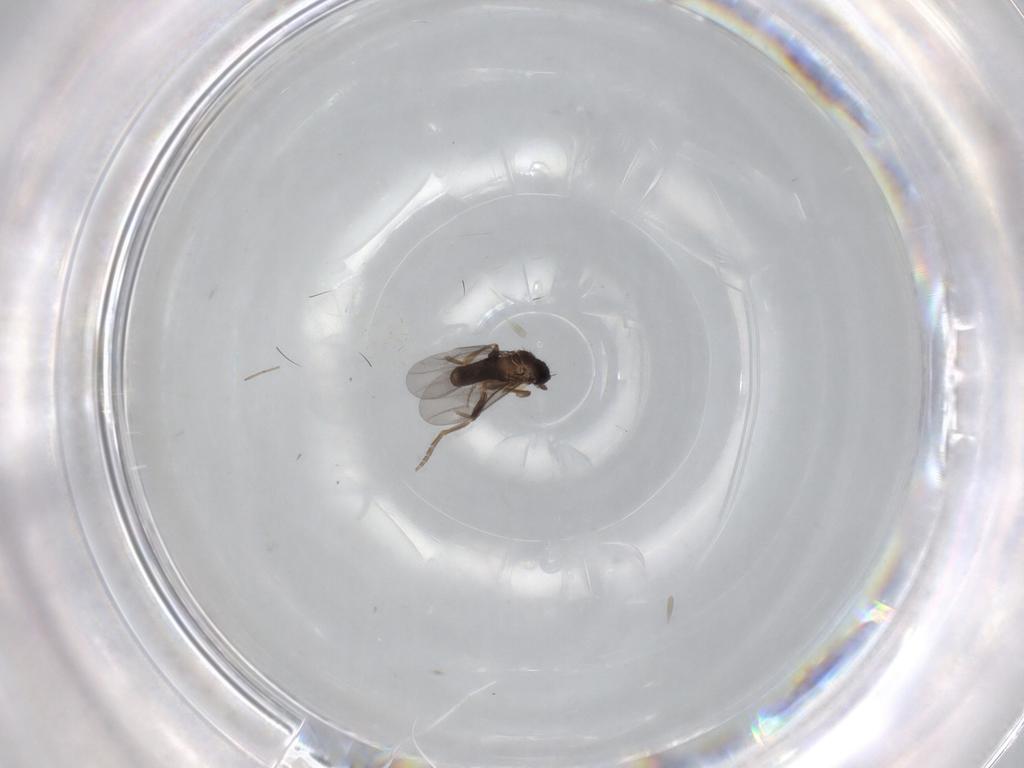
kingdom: Animalia
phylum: Arthropoda
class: Insecta
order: Diptera
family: Cecidomyiidae
